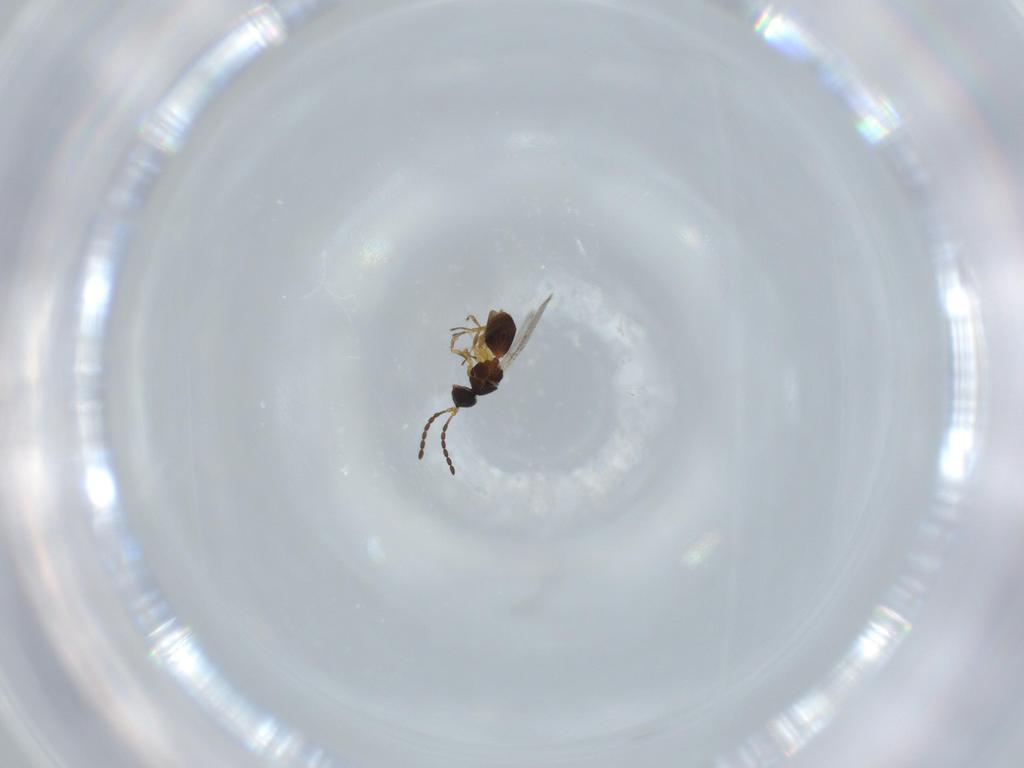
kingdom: Animalia
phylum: Arthropoda
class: Insecta
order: Hymenoptera
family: Figitidae
